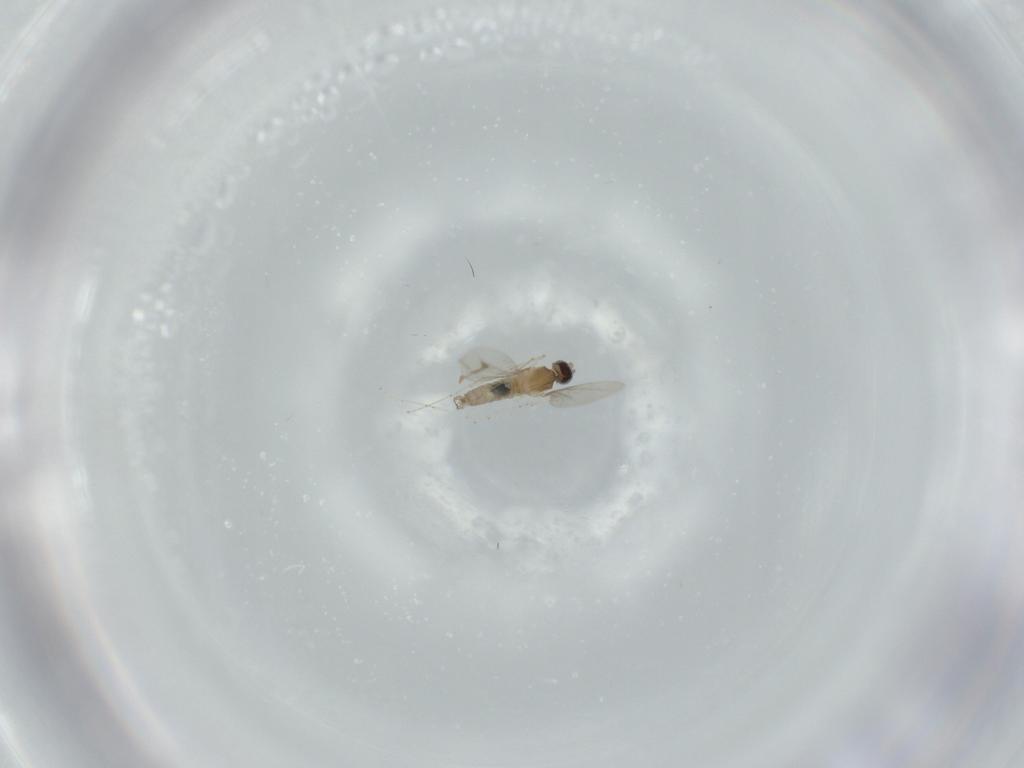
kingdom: Animalia
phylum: Arthropoda
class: Insecta
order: Diptera
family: Cecidomyiidae
